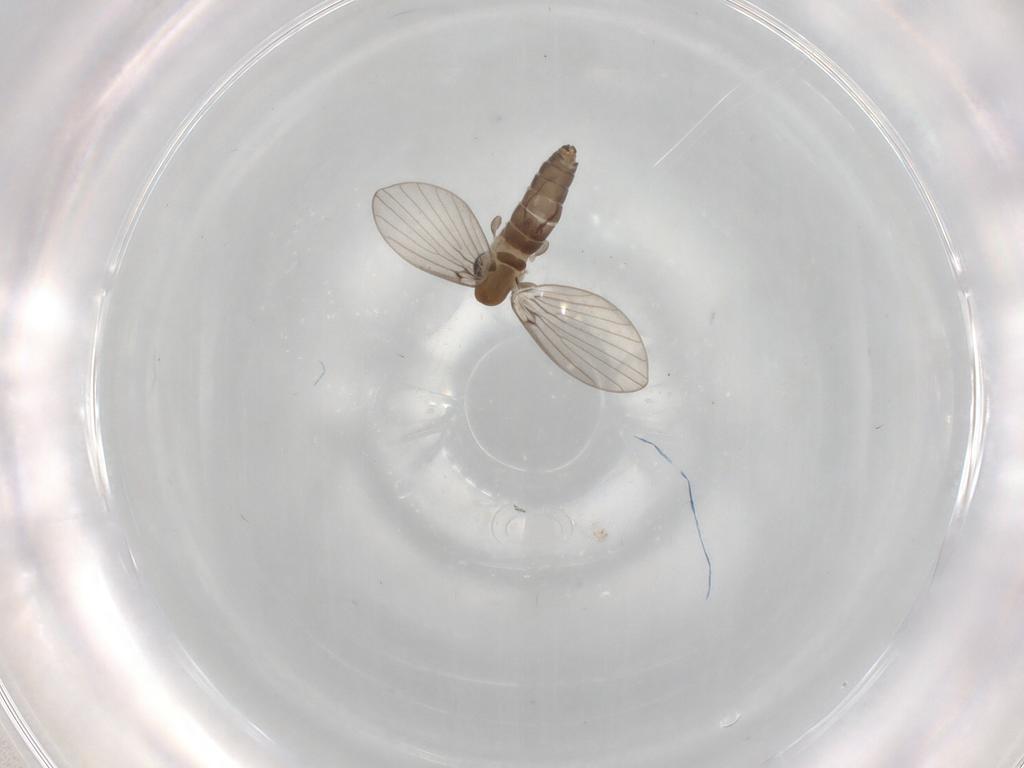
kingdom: Animalia
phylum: Arthropoda
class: Insecta
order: Diptera
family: Psychodidae
